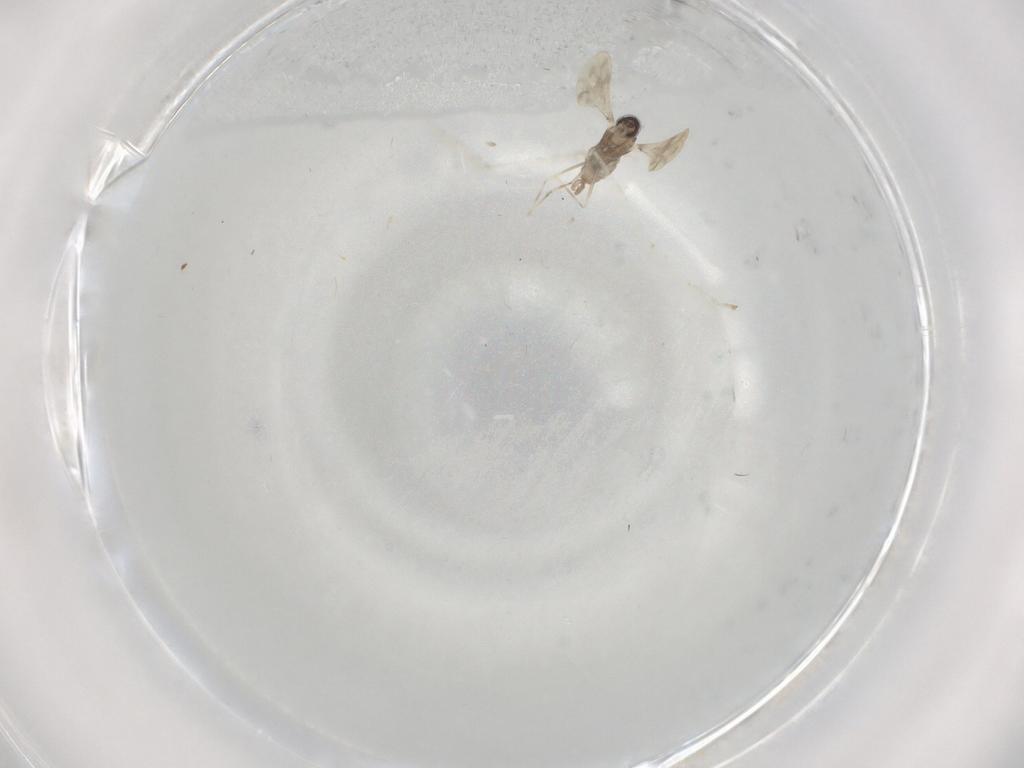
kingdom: Animalia
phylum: Arthropoda
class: Insecta
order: Diptera
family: Cecidomyiidae
